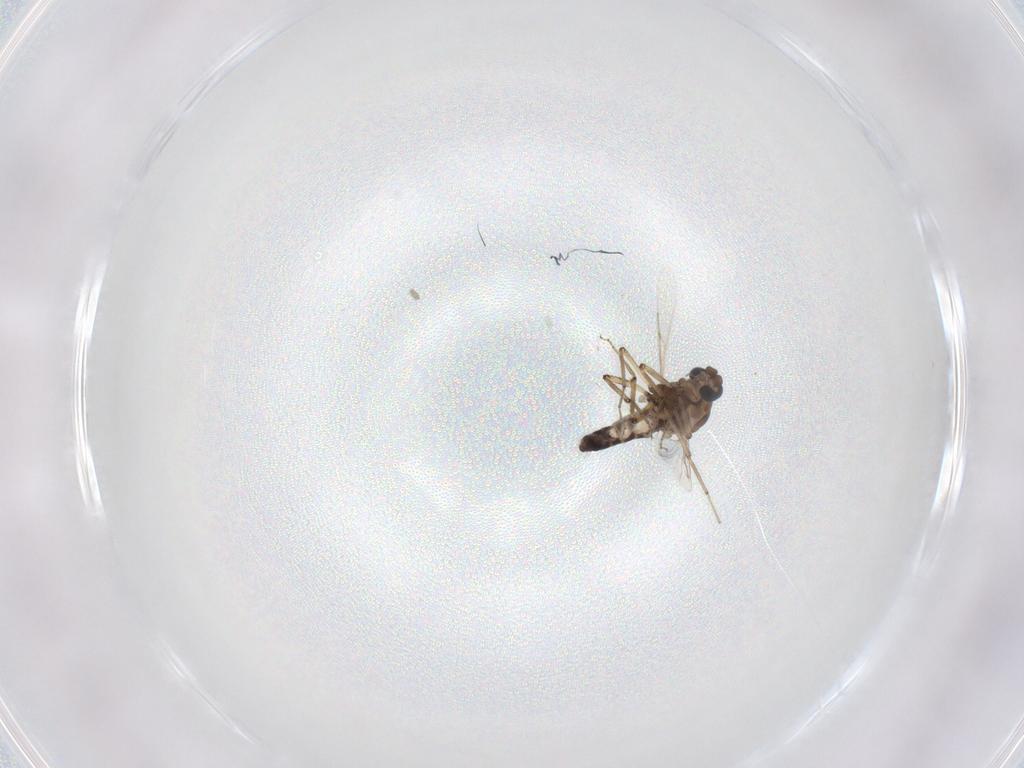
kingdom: Animalia
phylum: Arthropoda
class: Insecta
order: Diptera
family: Ceratopogonidae
